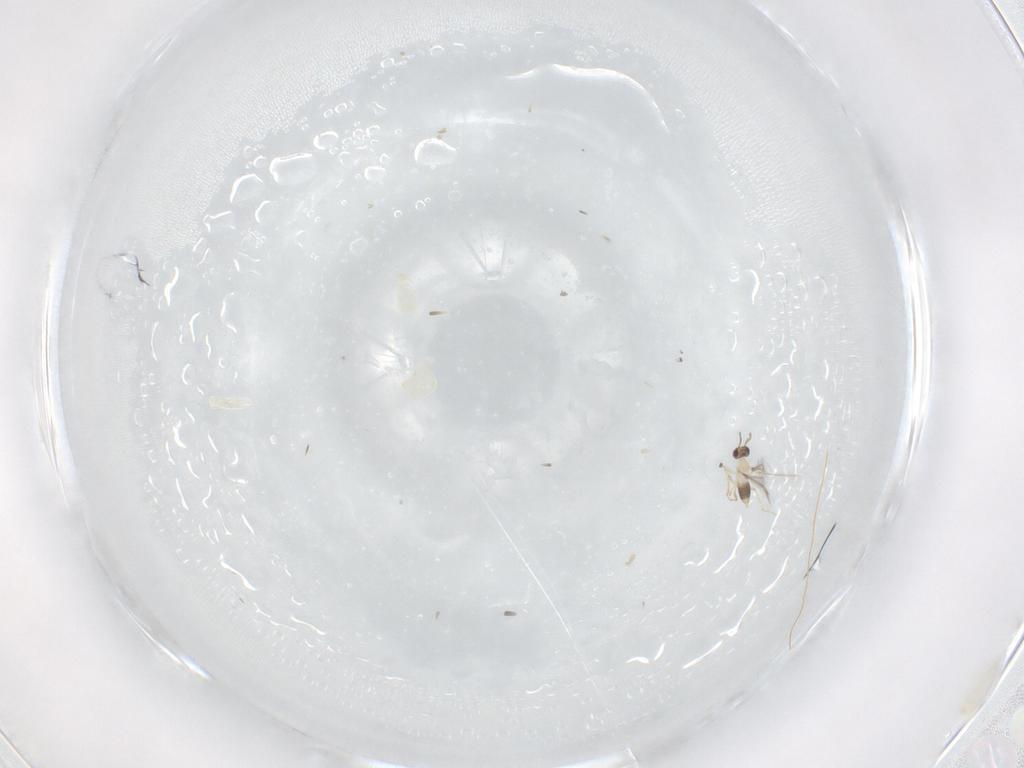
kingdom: Animalia
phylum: Arthropoda
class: Insecta
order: Hymenoptera
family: Mymaridae
